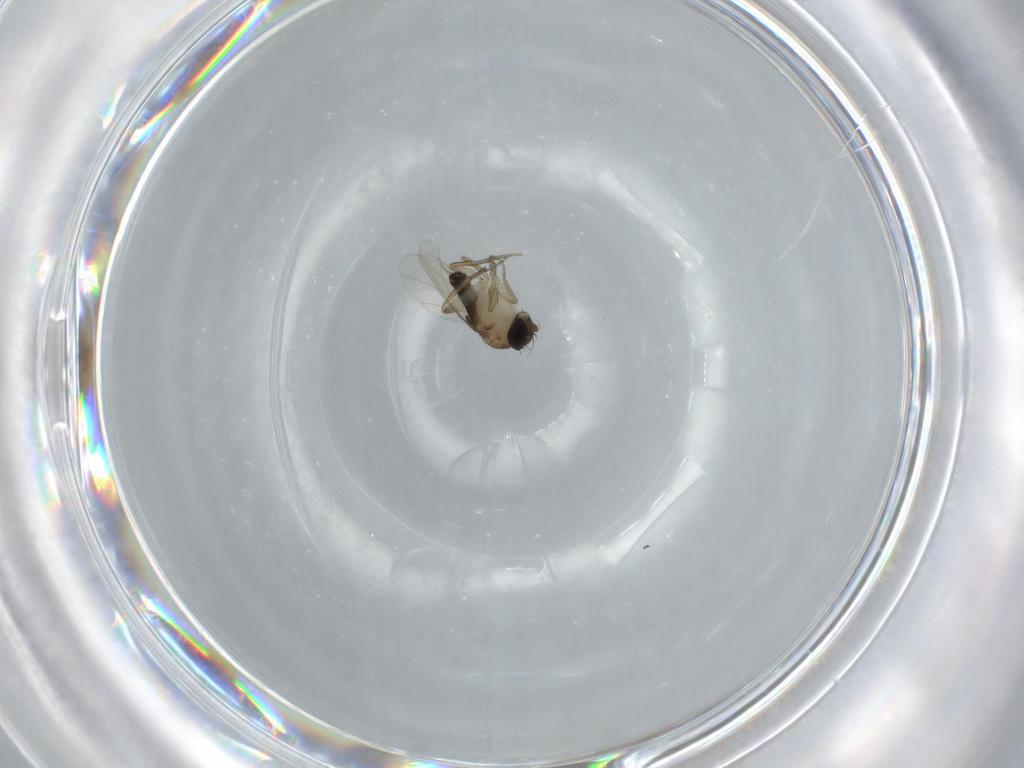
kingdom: Animalia
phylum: Arthropoda
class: Insecta
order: Diptera
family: Phoridae
